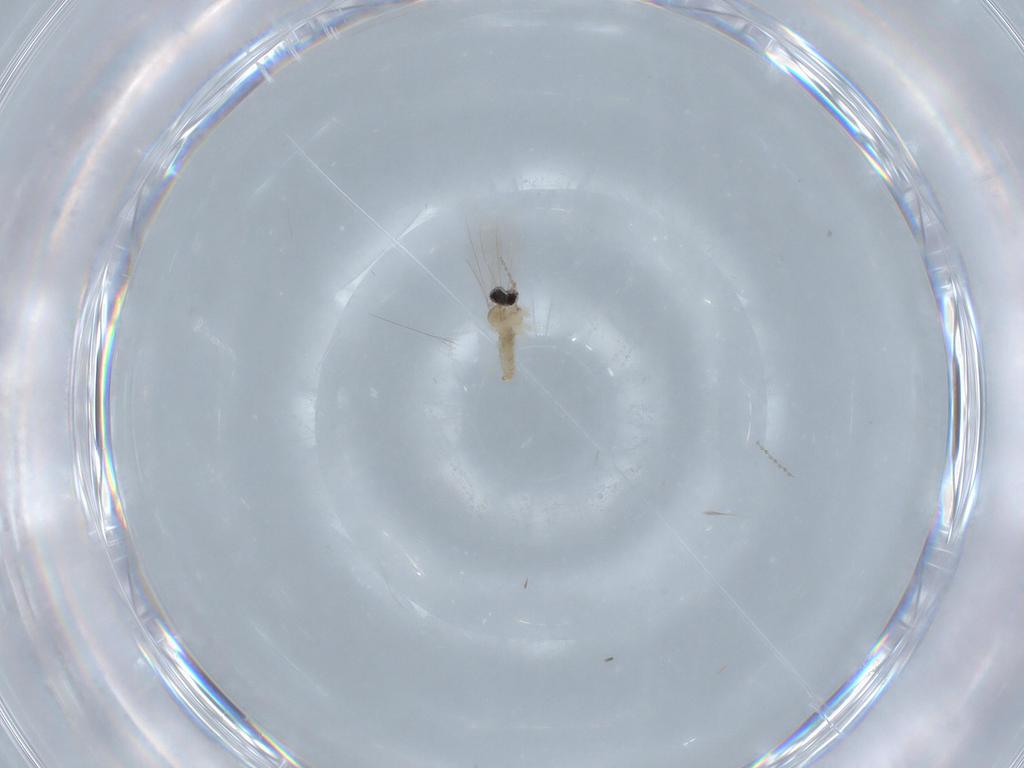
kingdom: Animalia
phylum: Arthropoda
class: Insecta
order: Diptera
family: Cecidomyiidae
